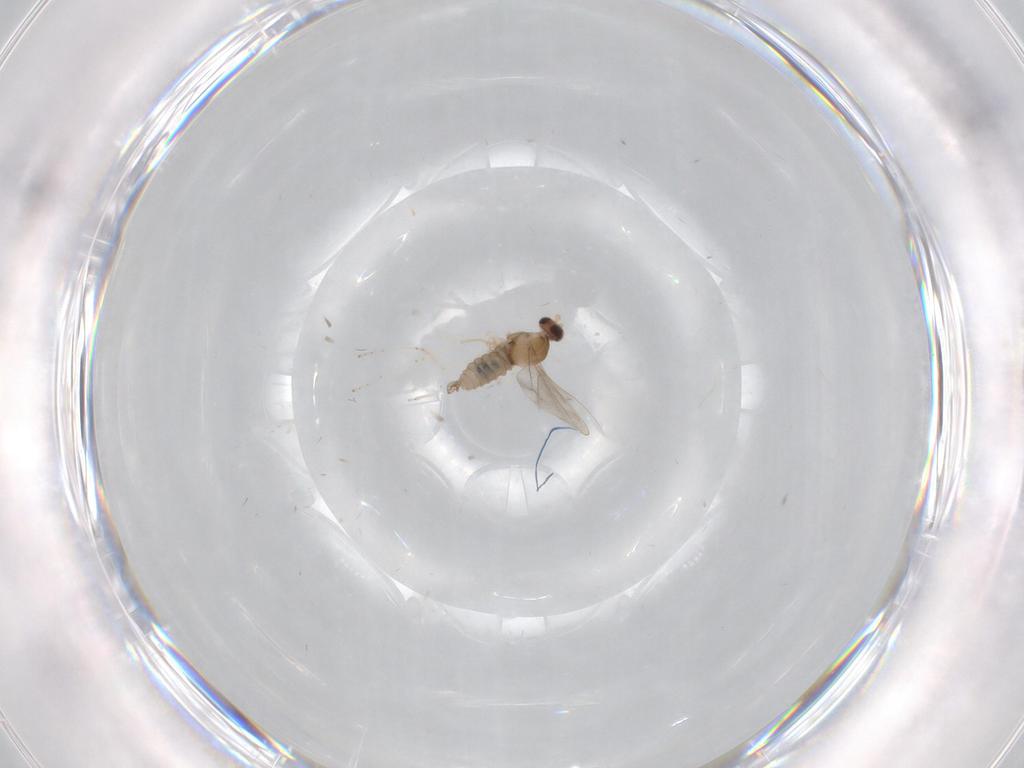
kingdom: Animalia
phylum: Arthropoda
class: Insecta
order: Diptera
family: Cecidomyiidae
